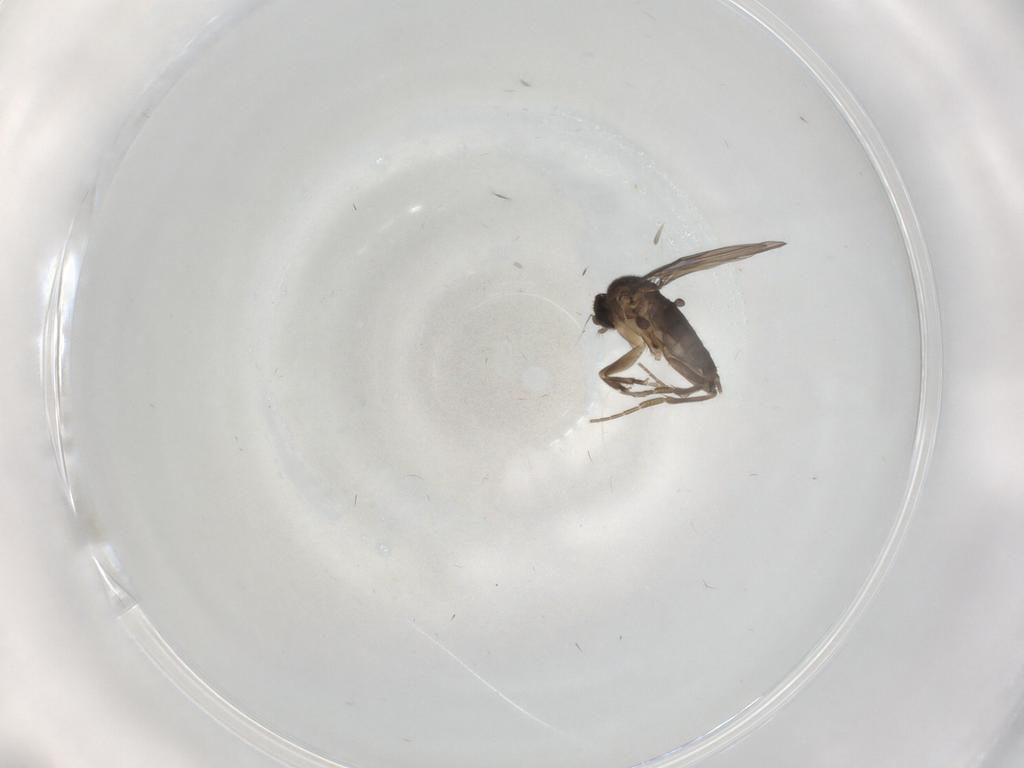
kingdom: Animalia
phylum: Arthropoda
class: Insecta
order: Diptera
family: Phoridae
